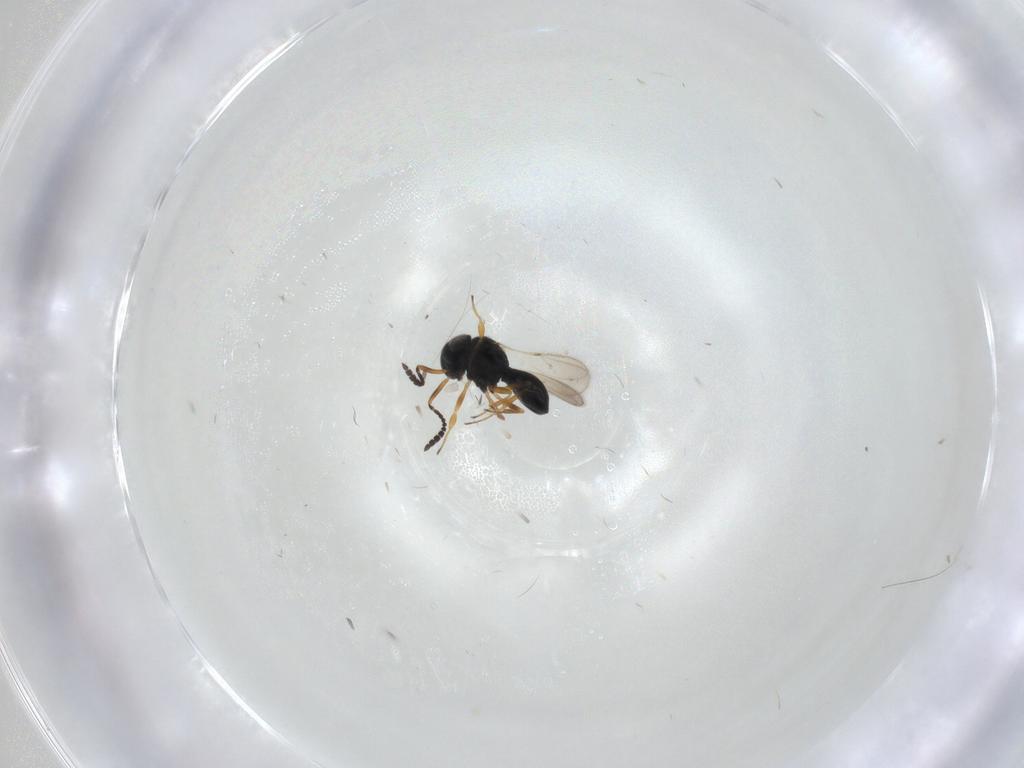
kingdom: Animalia
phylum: Arthropoda
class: Insecta
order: Hymenoptera
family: Scelionidae
